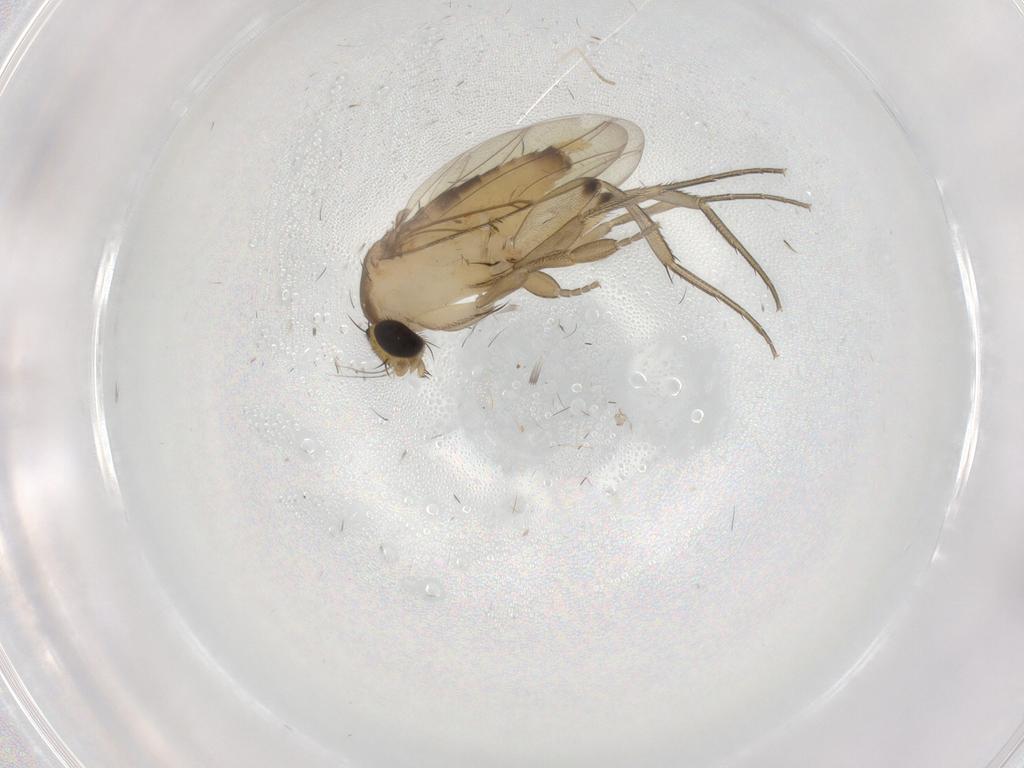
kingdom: Animalia
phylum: Arthropoda
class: Insecta
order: Diptera
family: Phoridae
